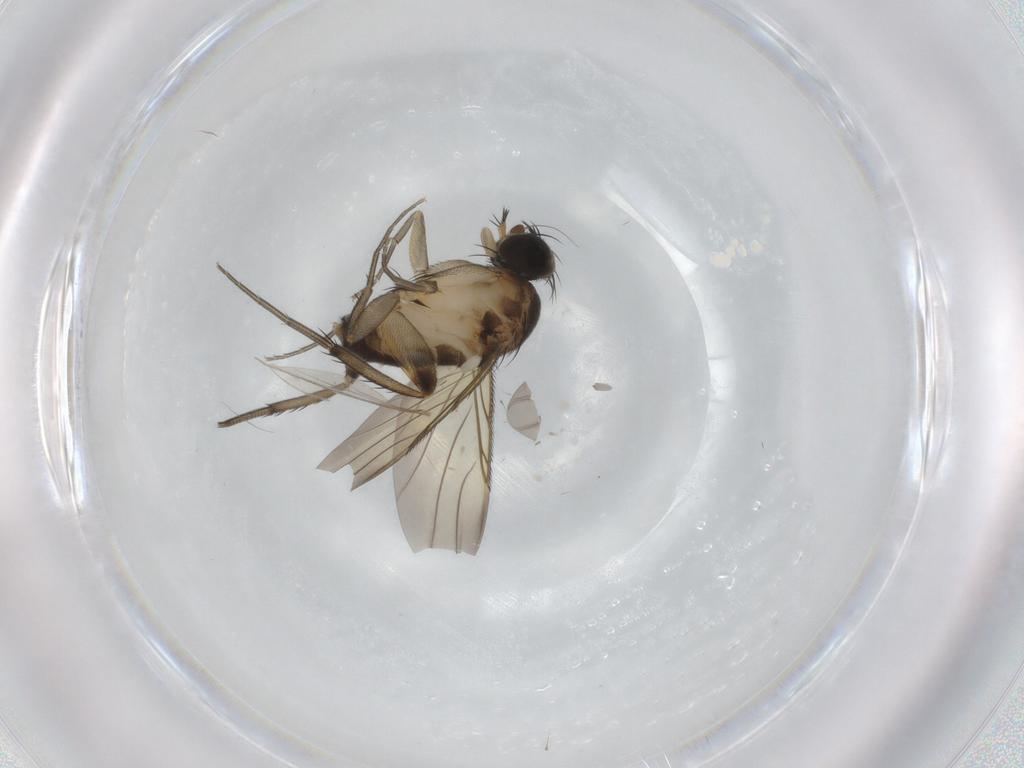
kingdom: Animalia
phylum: Arthropoda
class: Insecta
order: Diptera
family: Phoridae
